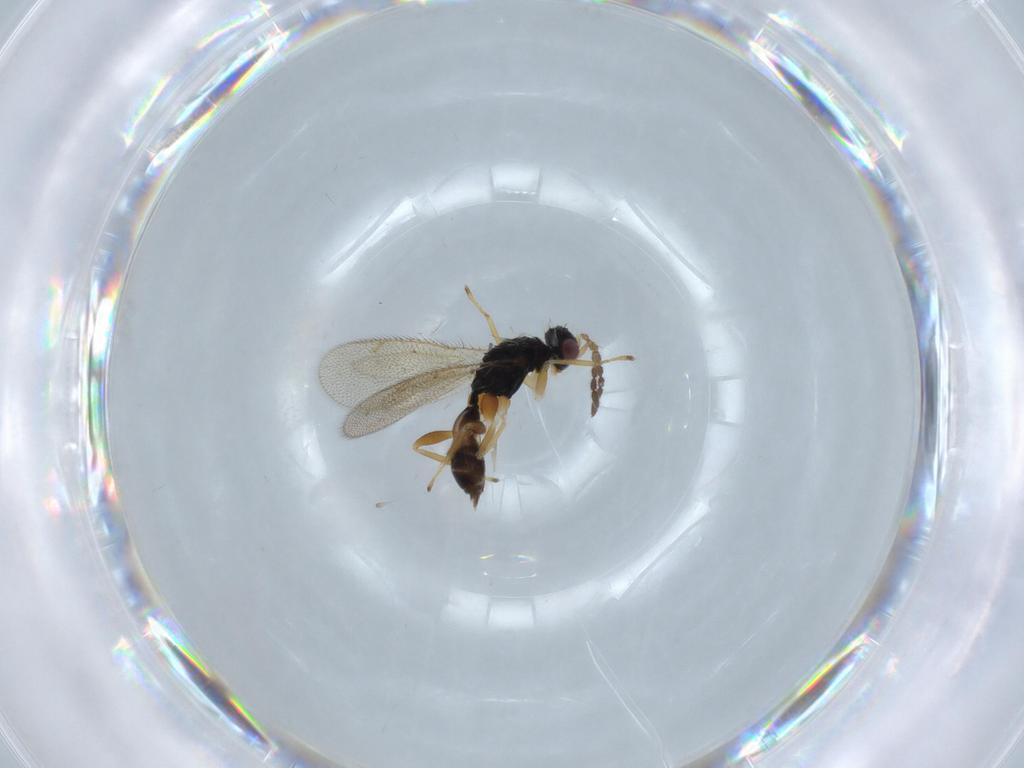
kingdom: Animalia
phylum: Arthropoda
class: Insecta
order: Hymenoptera
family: Eulophidae
